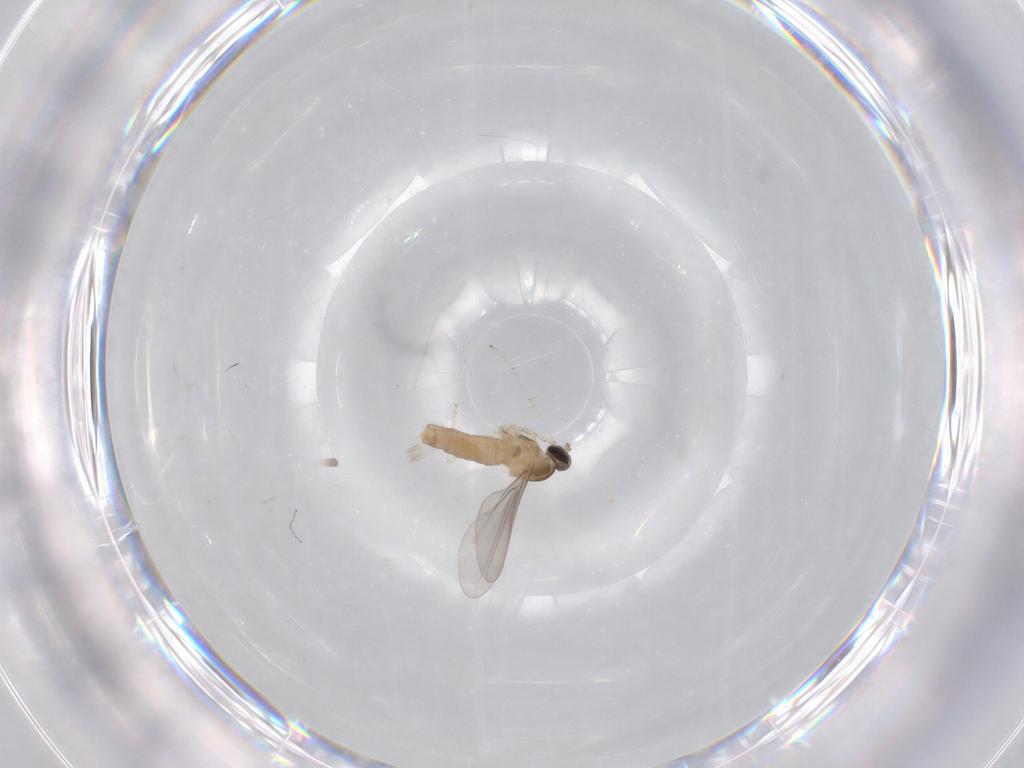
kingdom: Animalia
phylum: Arthropoda
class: Insecta
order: Diptera
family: Cecidomyiidae
